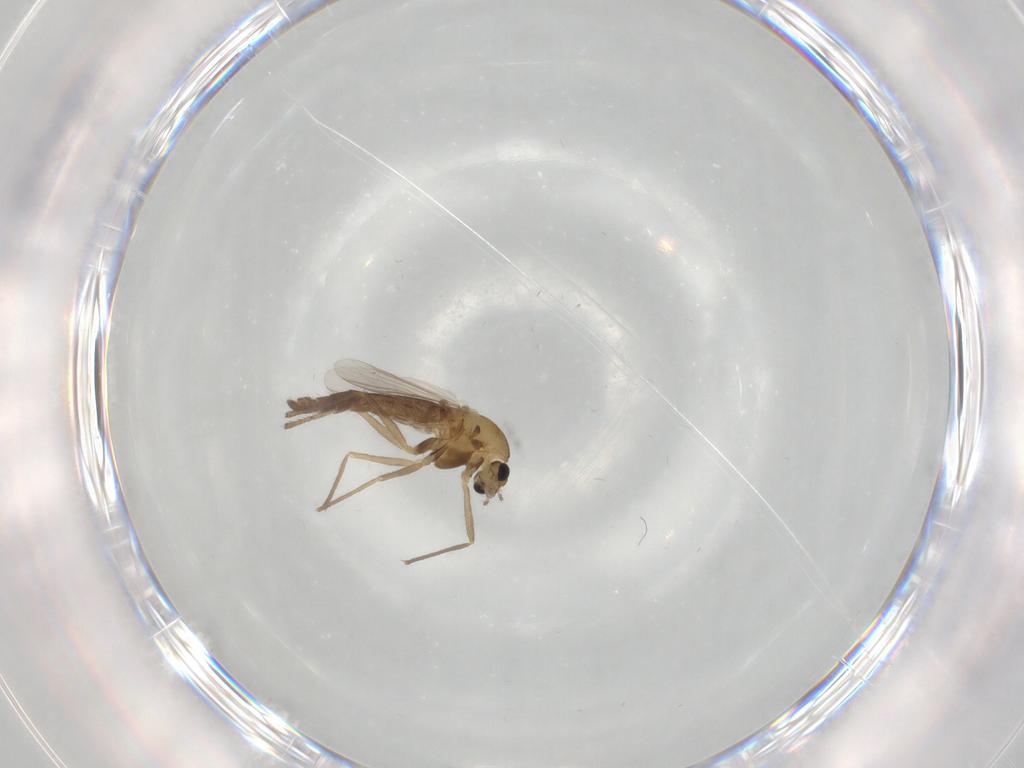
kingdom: Animalia
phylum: Arthropoda
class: Insecta
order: Diptera
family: Chironomidae
